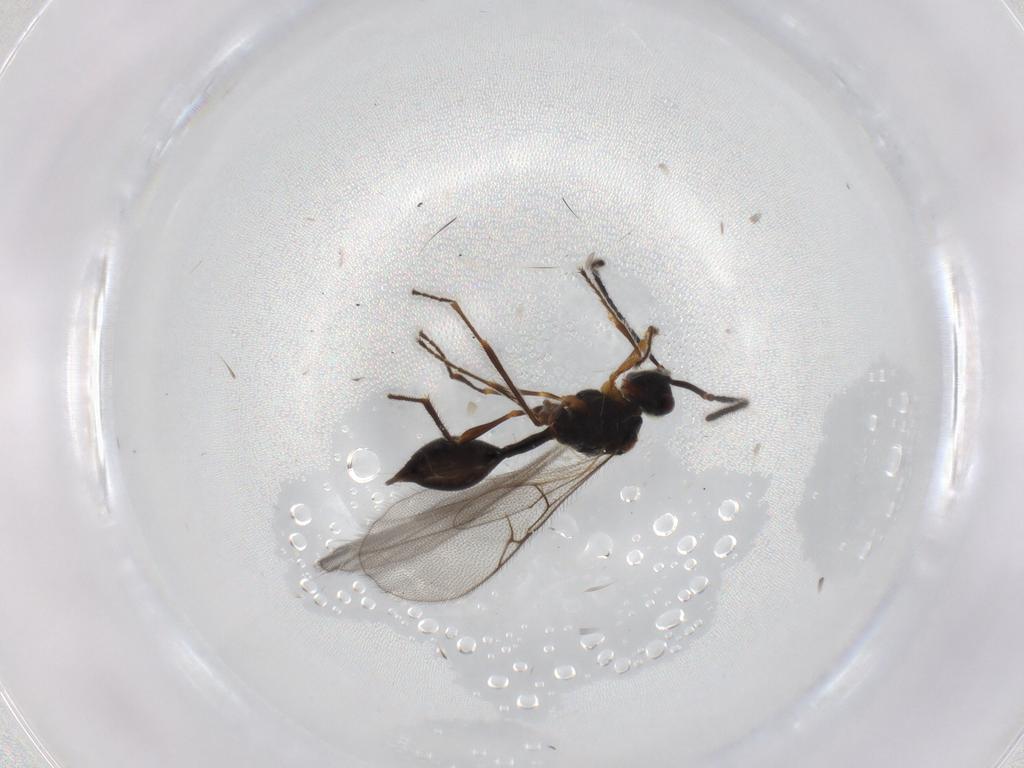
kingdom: Animalia
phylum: Arthropoda
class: Insecta
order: Hymenoptera
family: Diapriidae
